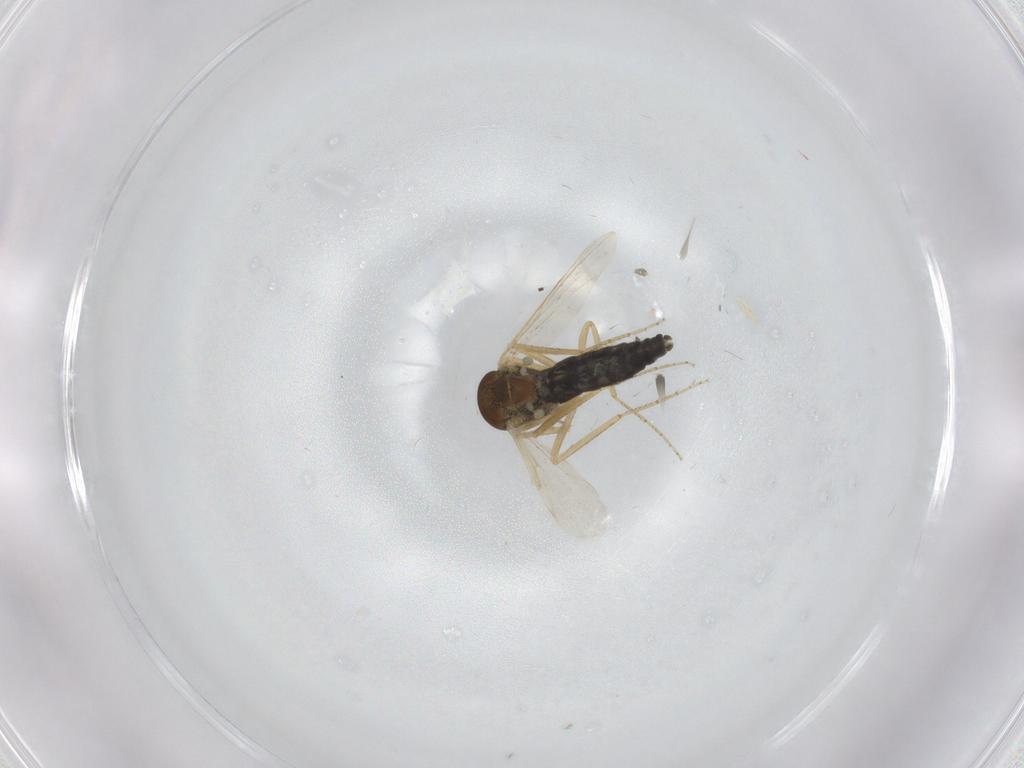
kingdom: Animalia
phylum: Arthropoda
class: Insecta
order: Diptera
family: Ceratopogonidae
